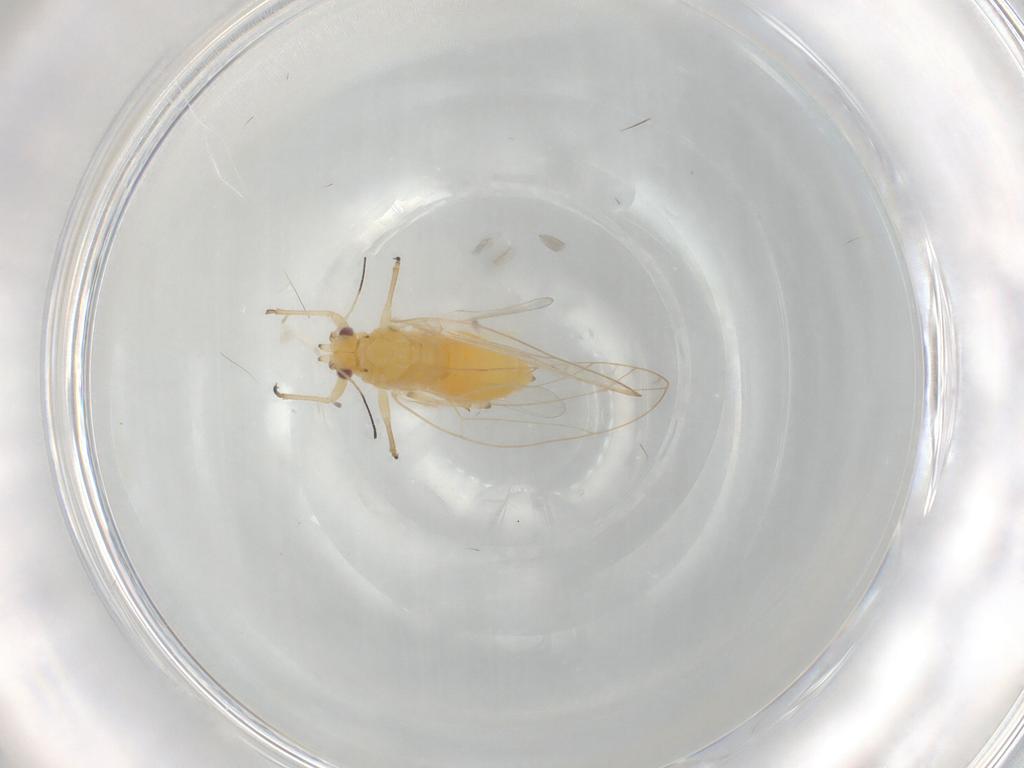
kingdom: Animalia
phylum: Arthropoda
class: Insecta
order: Hemiptera
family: Triozidae
